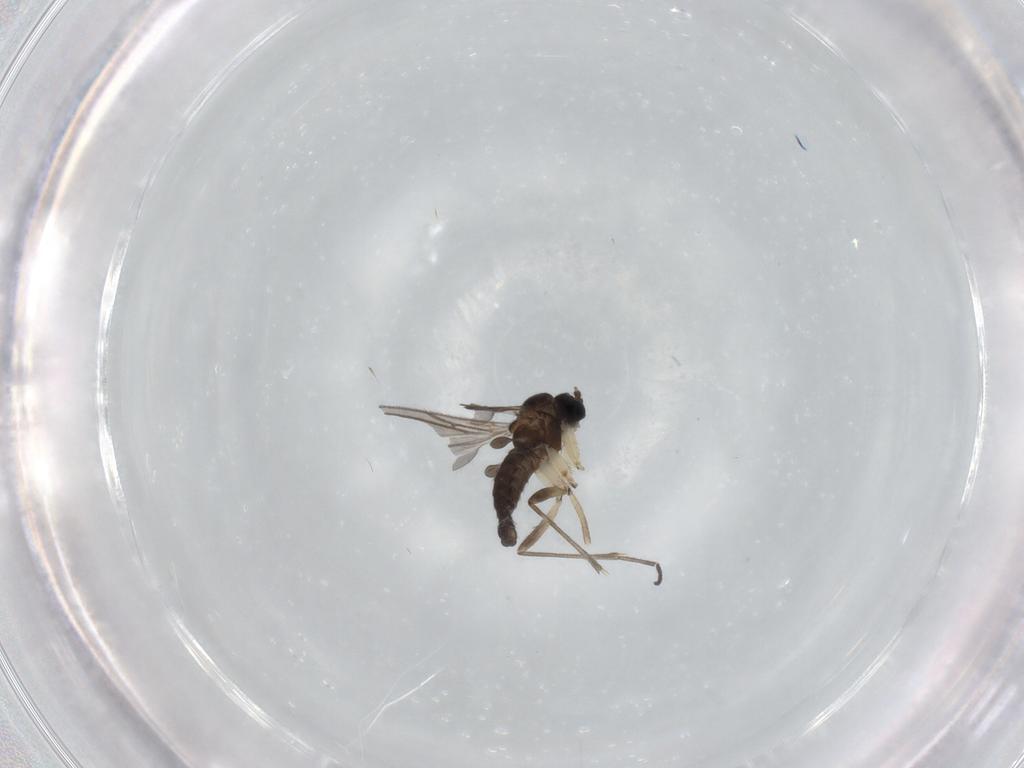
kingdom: Animalia
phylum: Arthropoda
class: Insecta
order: Diptera
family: Sciaridae
